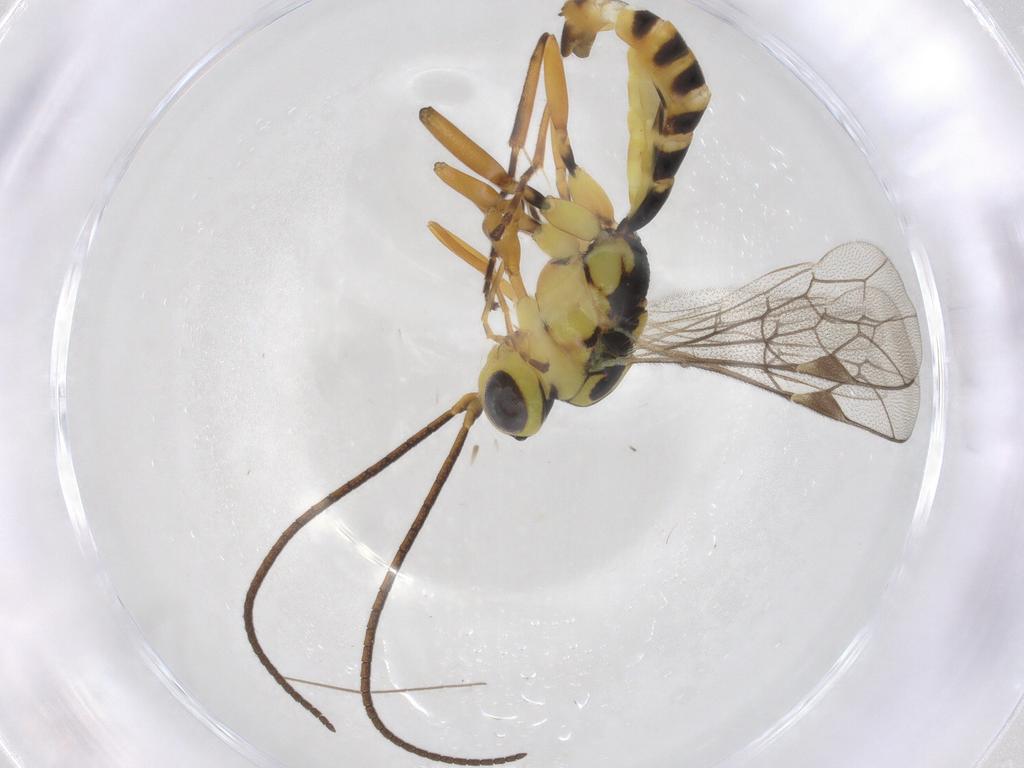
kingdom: Animalia
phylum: Arthropoda
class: Insecta
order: Hymenoptera
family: Ichneumonidae
